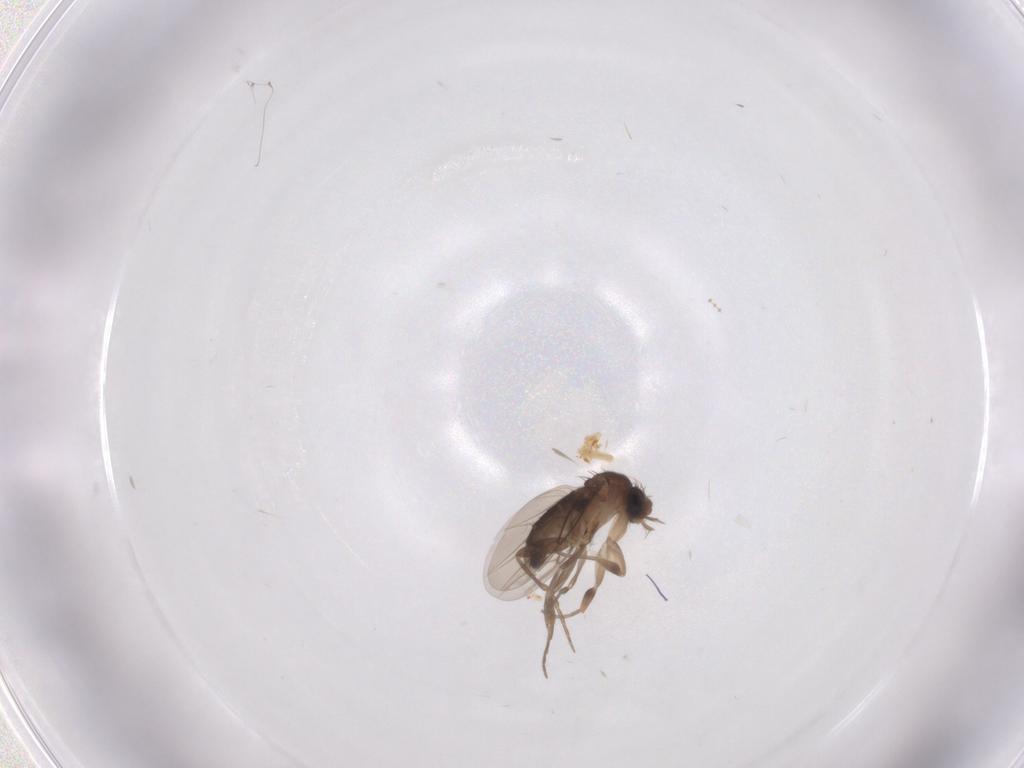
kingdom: Animalia
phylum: Arthropoda
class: Insecta
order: Diptera
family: Phoridae
